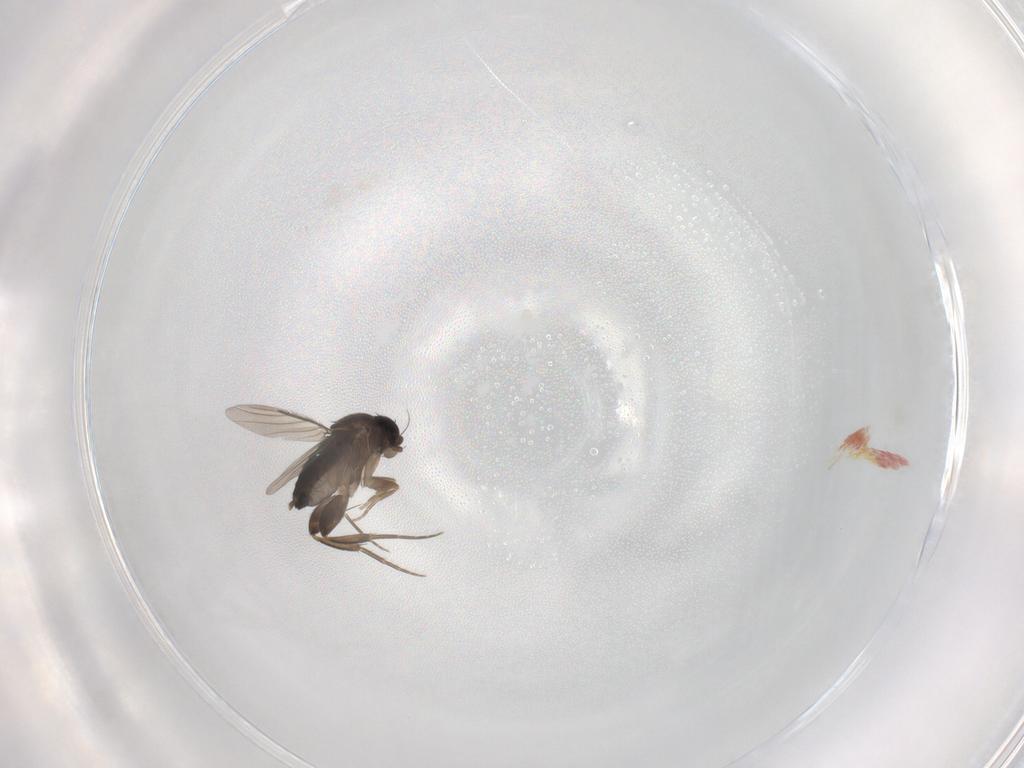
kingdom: Animalia
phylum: Arthropoda
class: Insecta
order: Diptera
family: Phoridae
